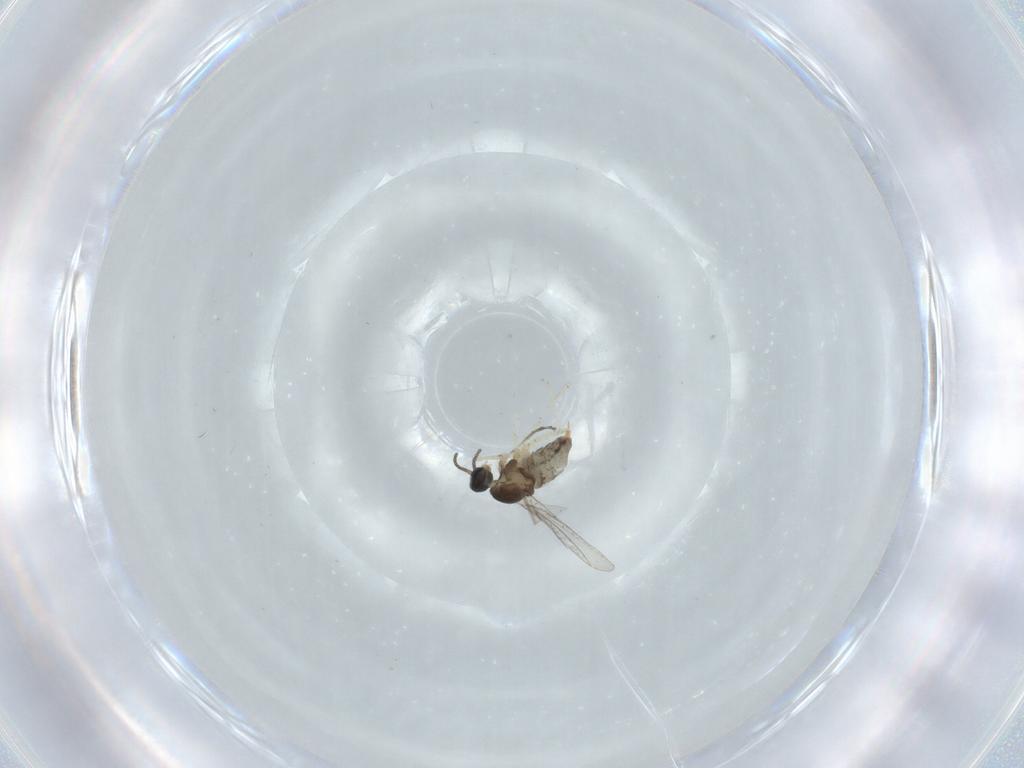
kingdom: Animalia
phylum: Arthropoda
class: Insecta
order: Diptera
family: Cecidomyiidae
